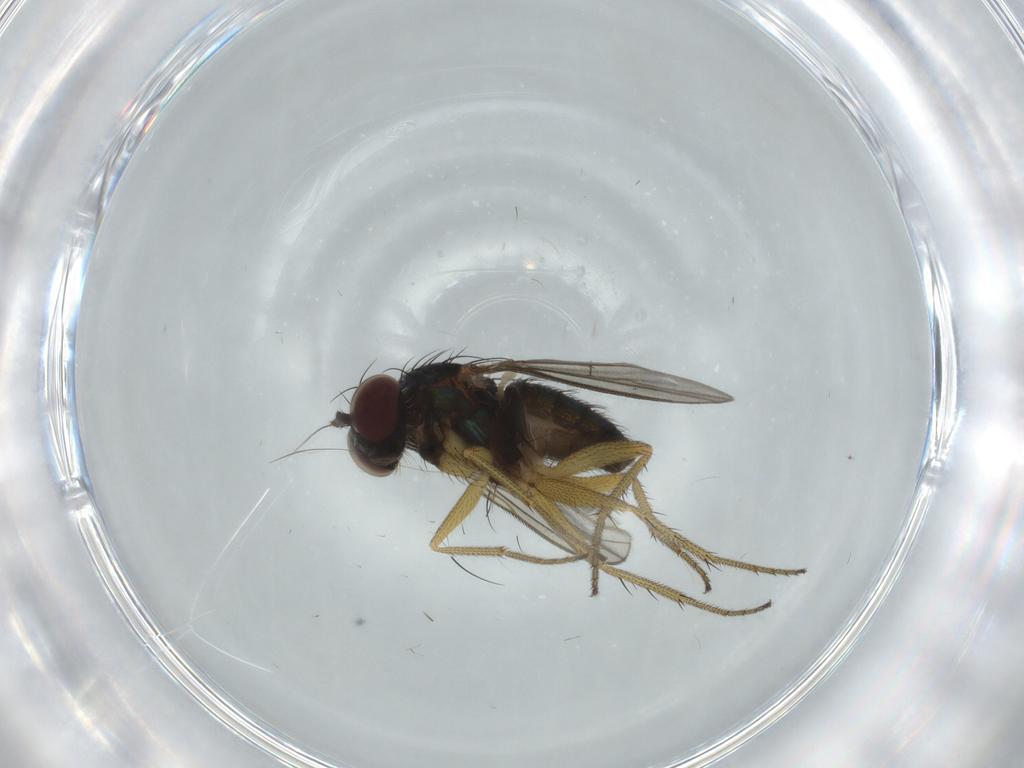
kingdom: Animalia
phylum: Arthropoda
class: Insecta
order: Diptera
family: Dolichopodidae
